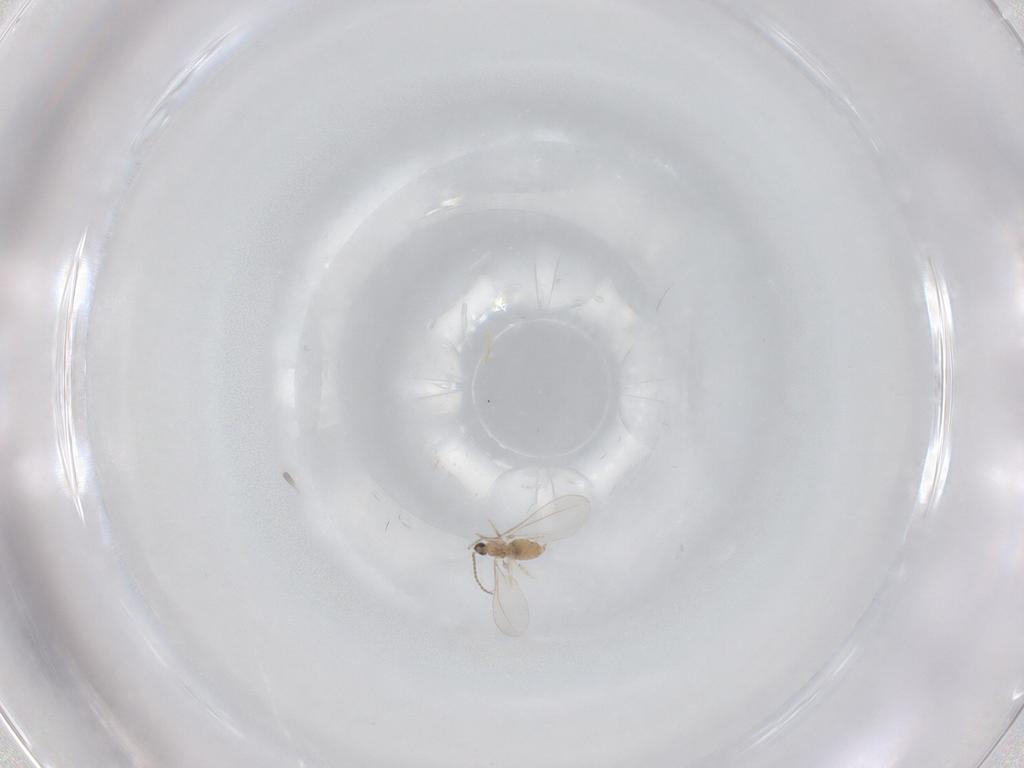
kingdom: Animalia
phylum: Arthropoda
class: Insecta
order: Diptera
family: Cecidomyiidae
